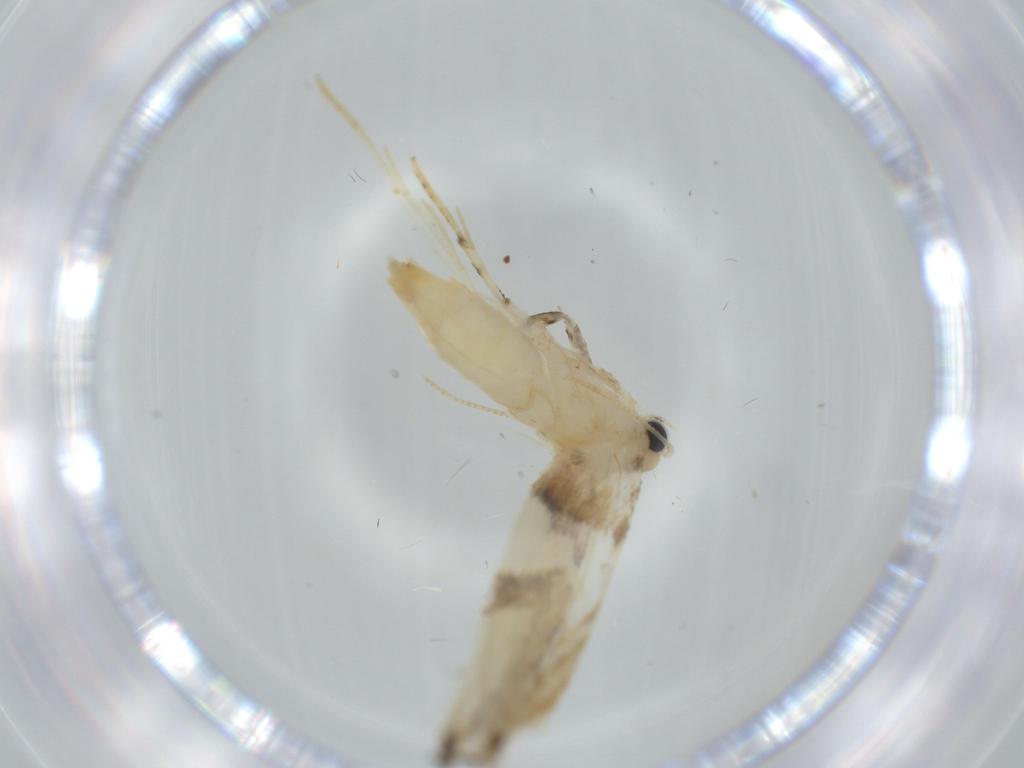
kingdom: Animalia
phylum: Arthropoda
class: Insecta
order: Lepidoptera
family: Tineidae
